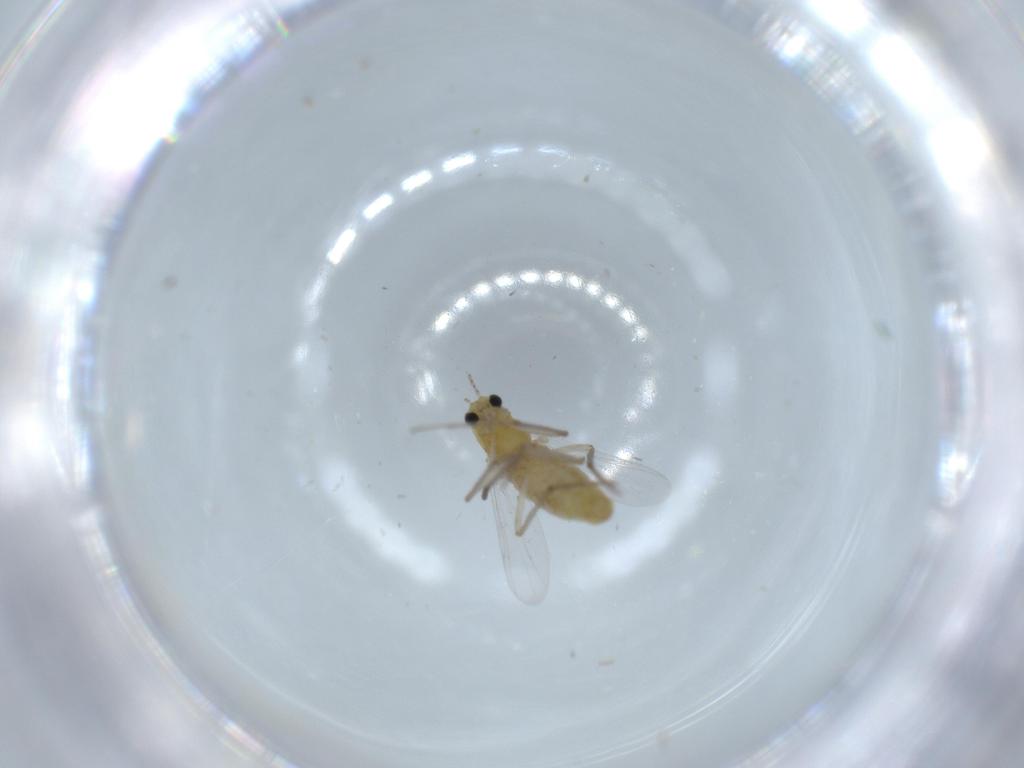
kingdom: Animalia
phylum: Arthropoda
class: Insecta
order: Diptera
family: Chironomidae
